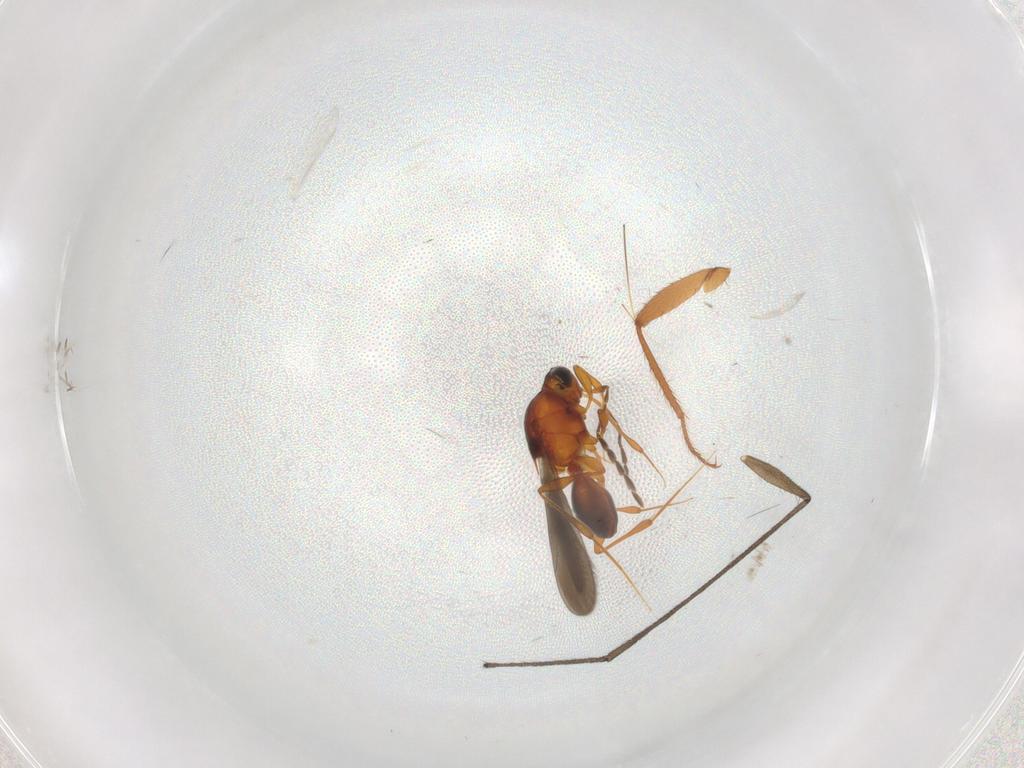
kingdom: Animalia
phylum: Arthropoda
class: Insecta
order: Hymenoptera
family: Platygastridae
